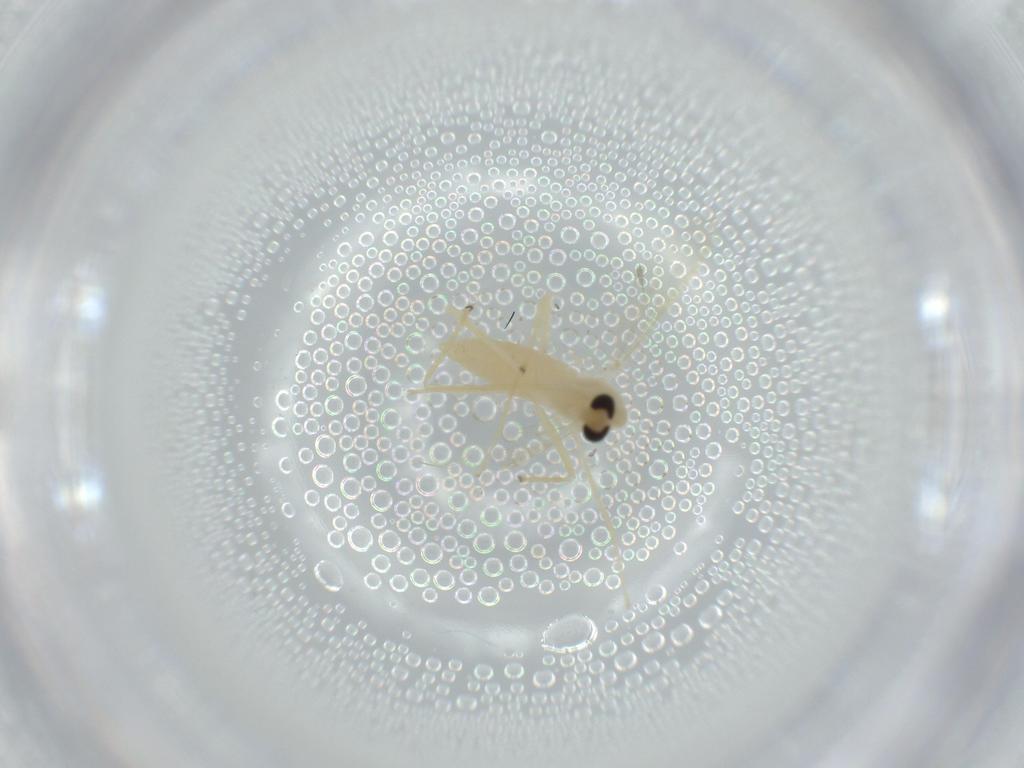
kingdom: Animalia
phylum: Arthropoda
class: Insecta
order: Diptera
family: Chironomidae
